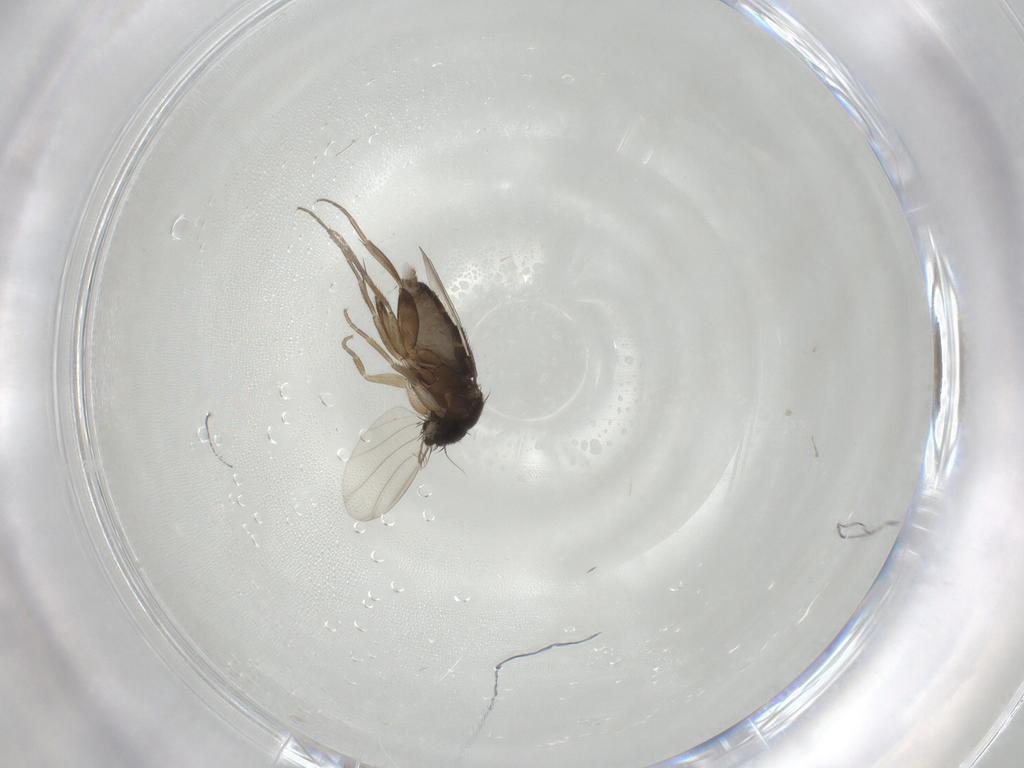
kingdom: Animalia
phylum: Arthropoda
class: Insecta
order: Diptera
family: Phoridae
